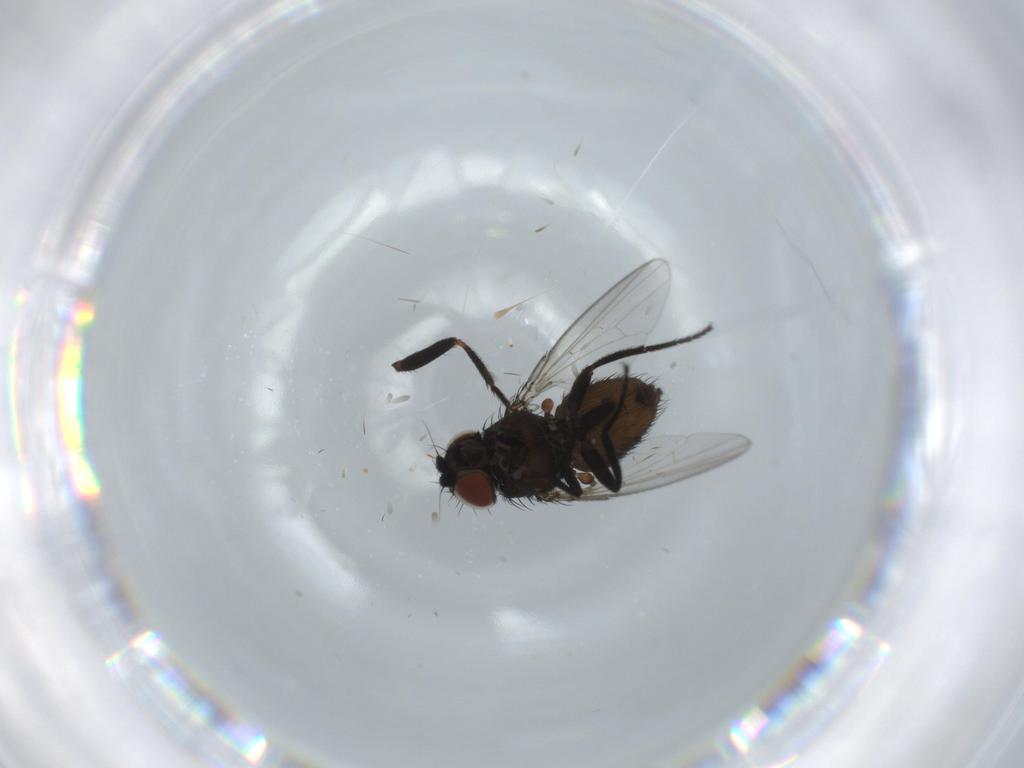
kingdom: Animalia
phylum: Arthropoda
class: Insecta
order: Diptera
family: Milichiidae
